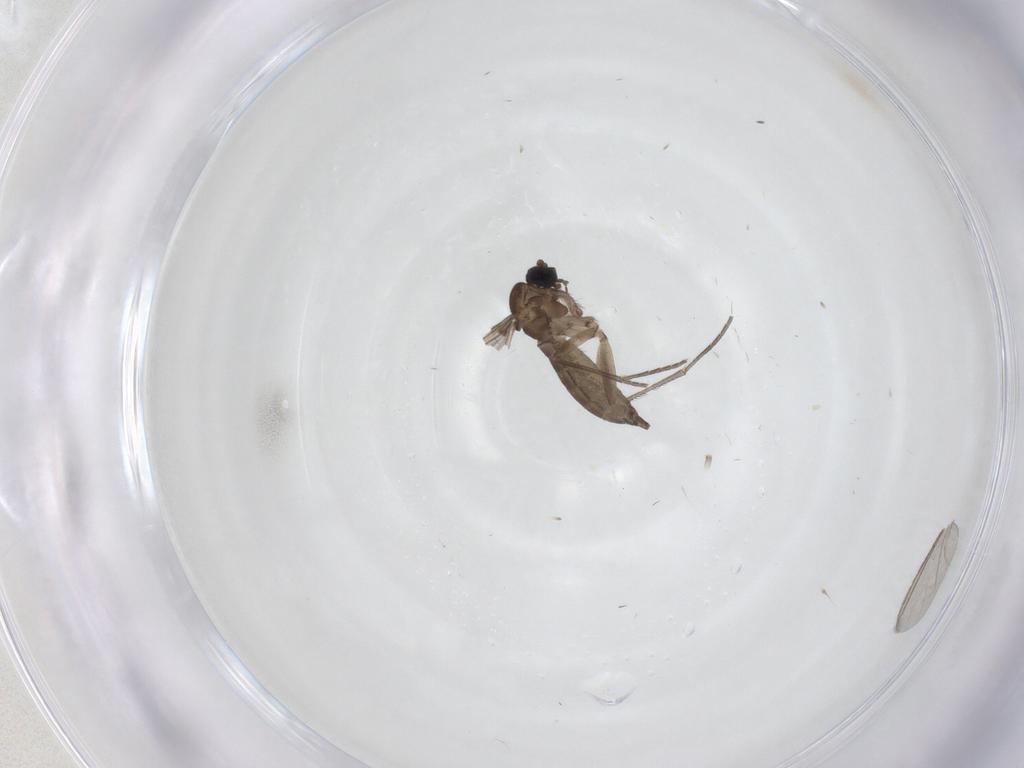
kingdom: Animalia
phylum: Arthropoda
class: Insecta
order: Diptera
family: Sciaridae
